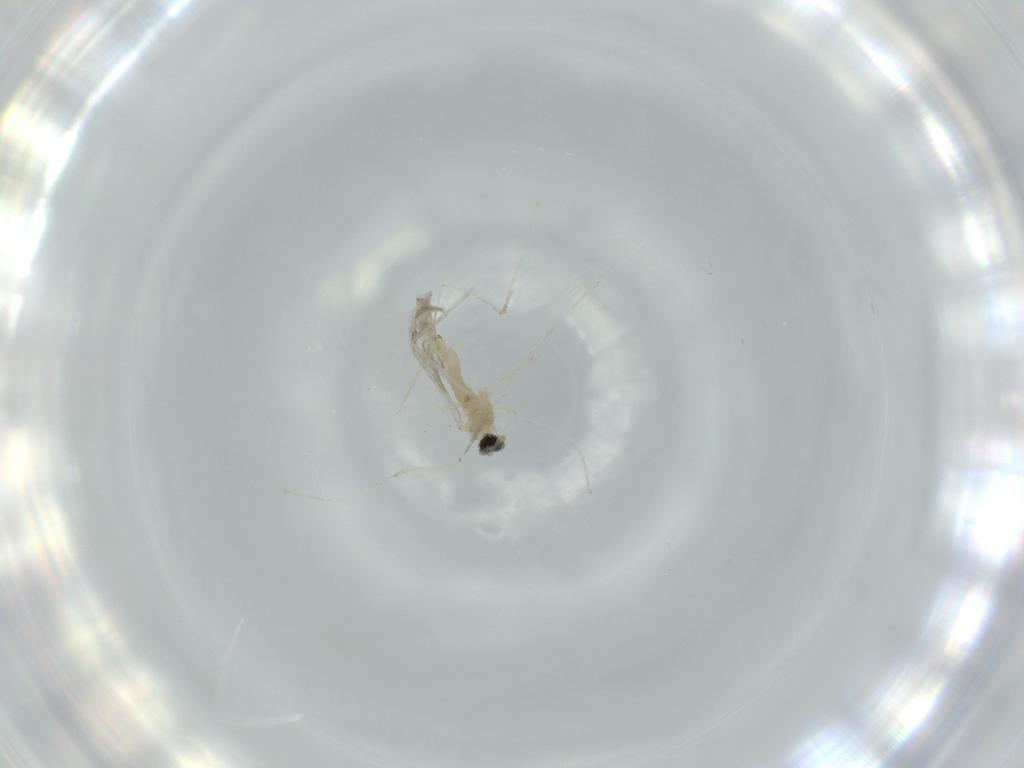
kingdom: Animalia
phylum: Arthropoda
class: Insecta
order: Diptera
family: Cecidomyiidae
